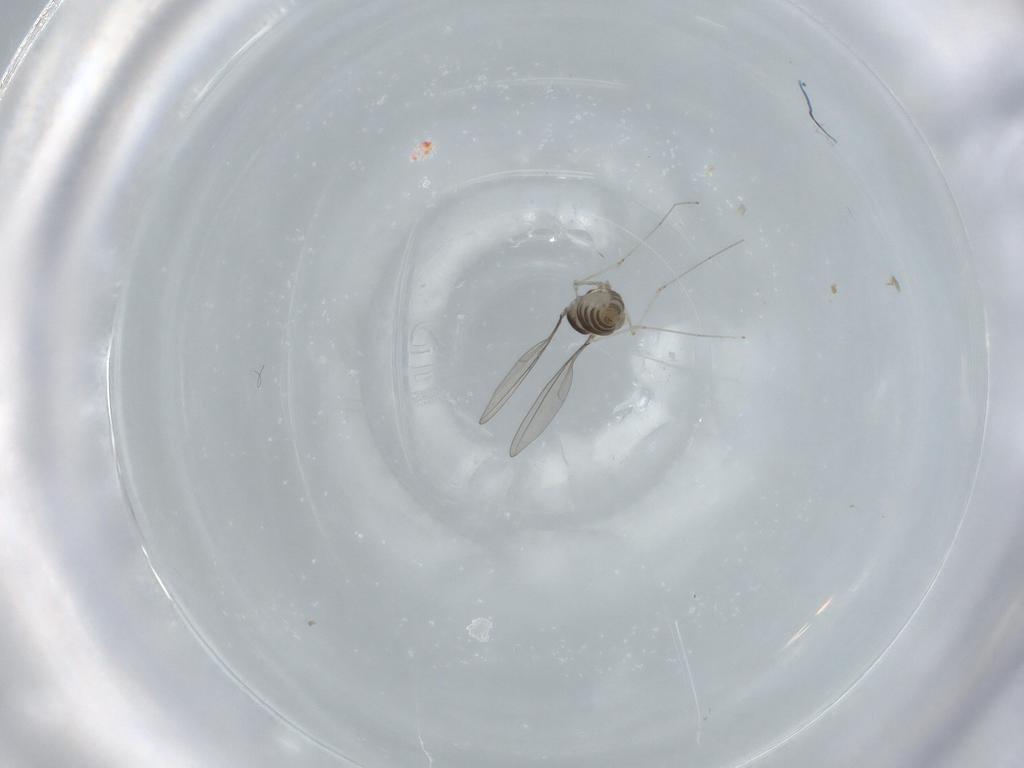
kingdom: Animalia
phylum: Arthropoda
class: Insecta
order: Diptera
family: Cecidomyiidae
